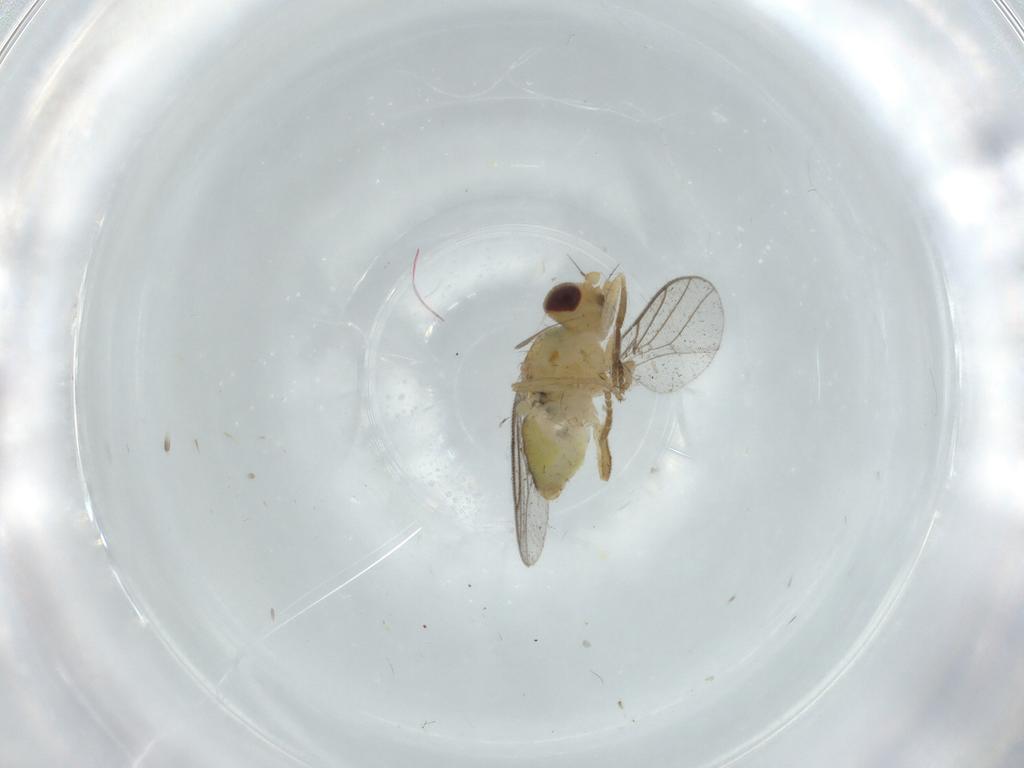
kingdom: Animalia
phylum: Arthropoda
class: Insecta
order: Diptera
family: Chloropidae
